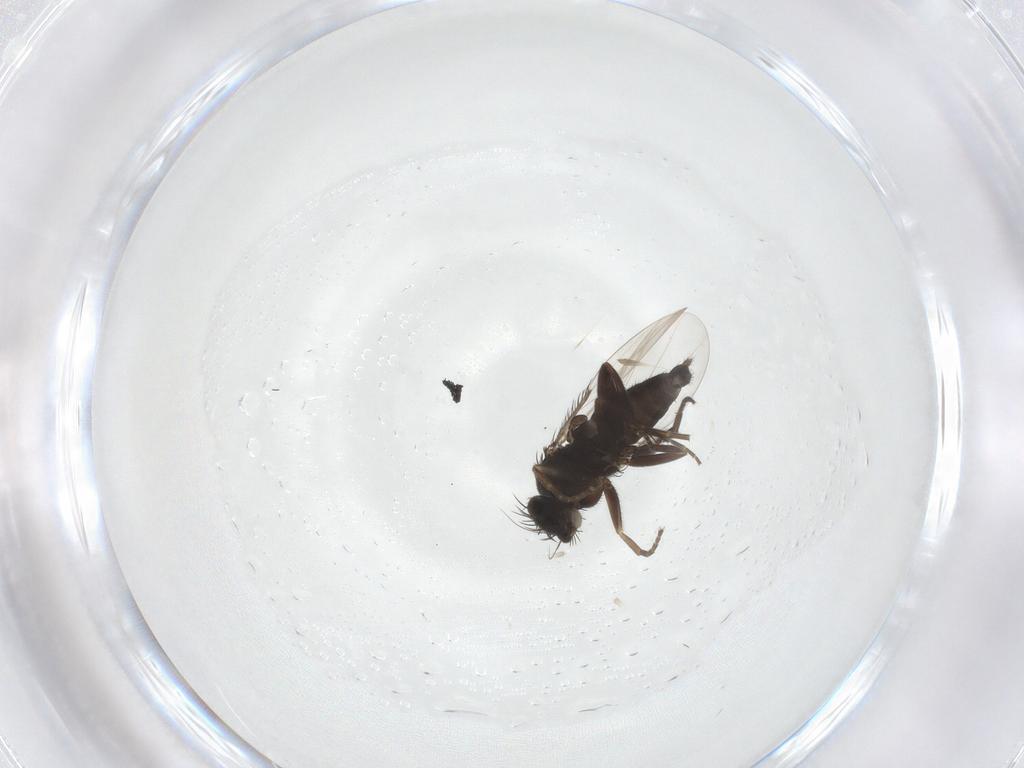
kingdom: Animalia
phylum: Arthropoda
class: Insecta
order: Diptera
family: Phoridae
